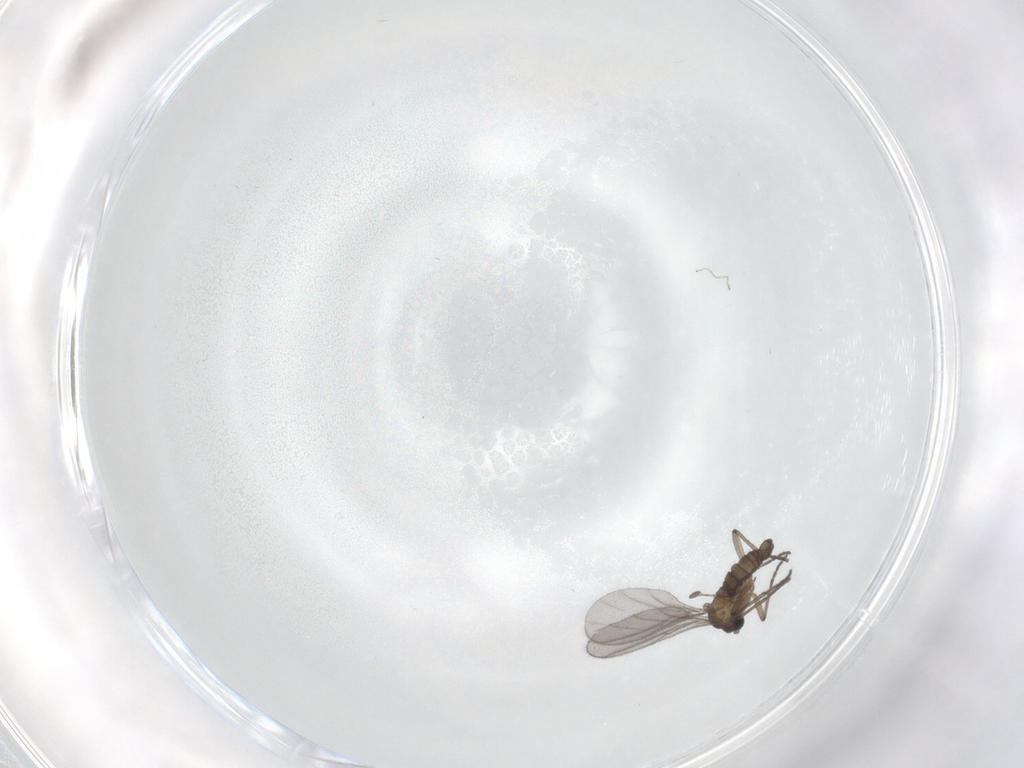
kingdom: Animalia
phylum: Arthropoda
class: Insecta
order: Diptera
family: Sciaridae
